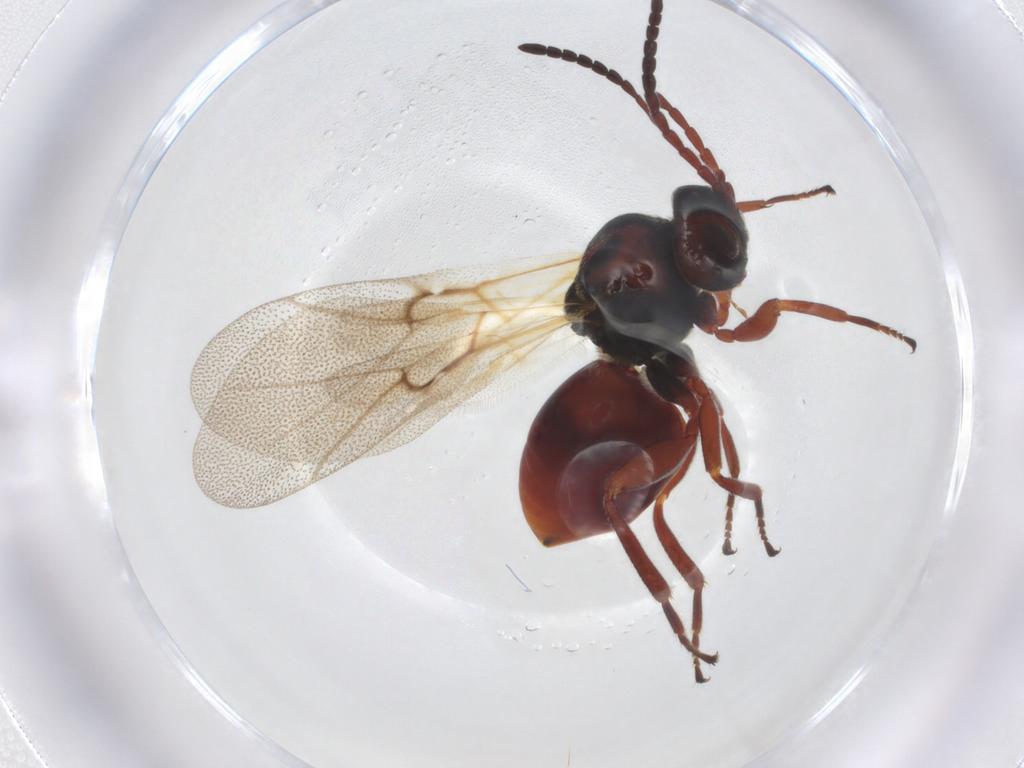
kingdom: Animalia
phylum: Arthropoda
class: Insecta
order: Hymenoptera
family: Cynipidae
